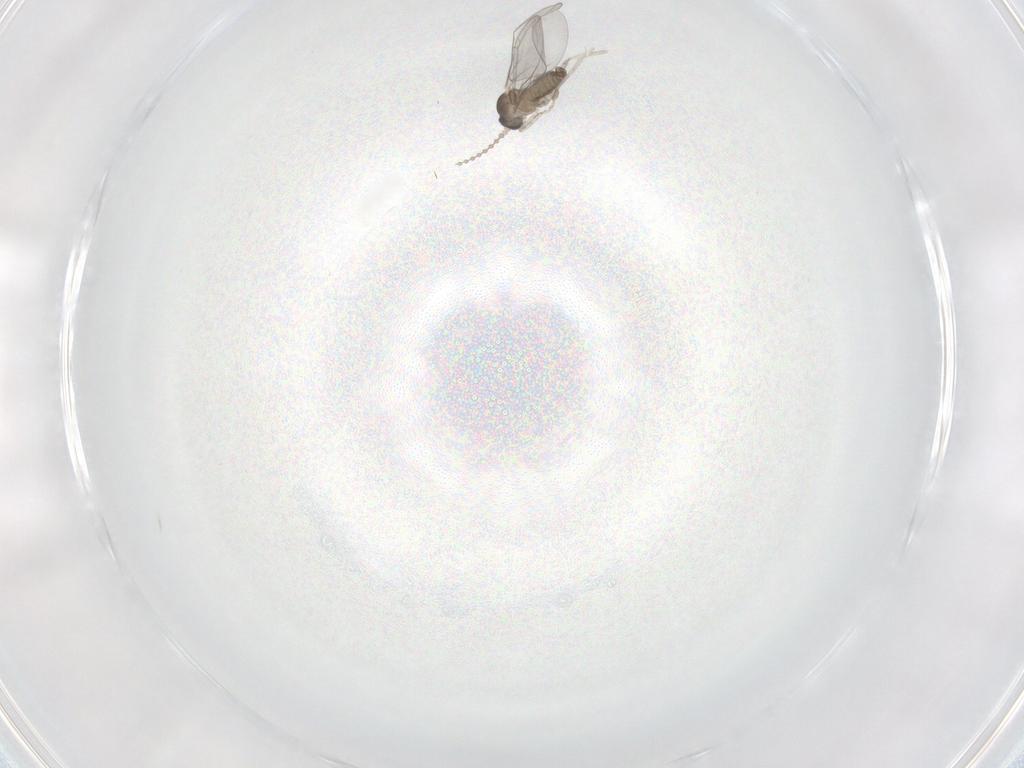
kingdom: Animalia
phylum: Arthropoda
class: Insecta
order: Diptera
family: Cecidomyiidae
